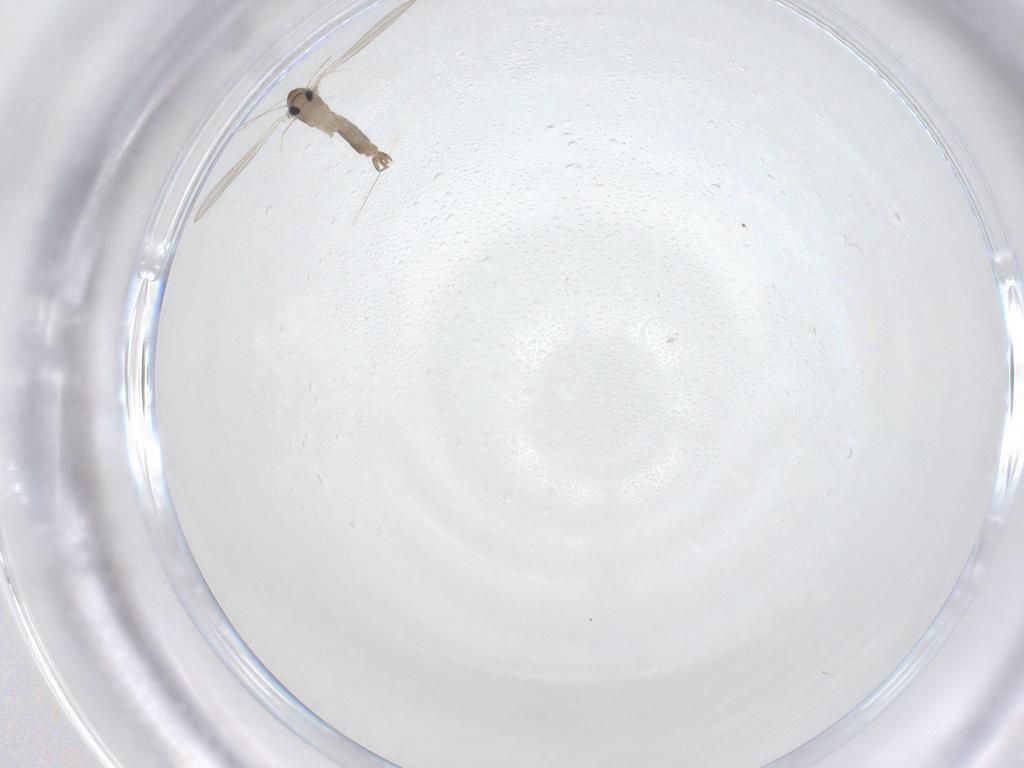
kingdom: Animalia
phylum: Arthropoda
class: Insecta
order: Diptera
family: Psychodidae
